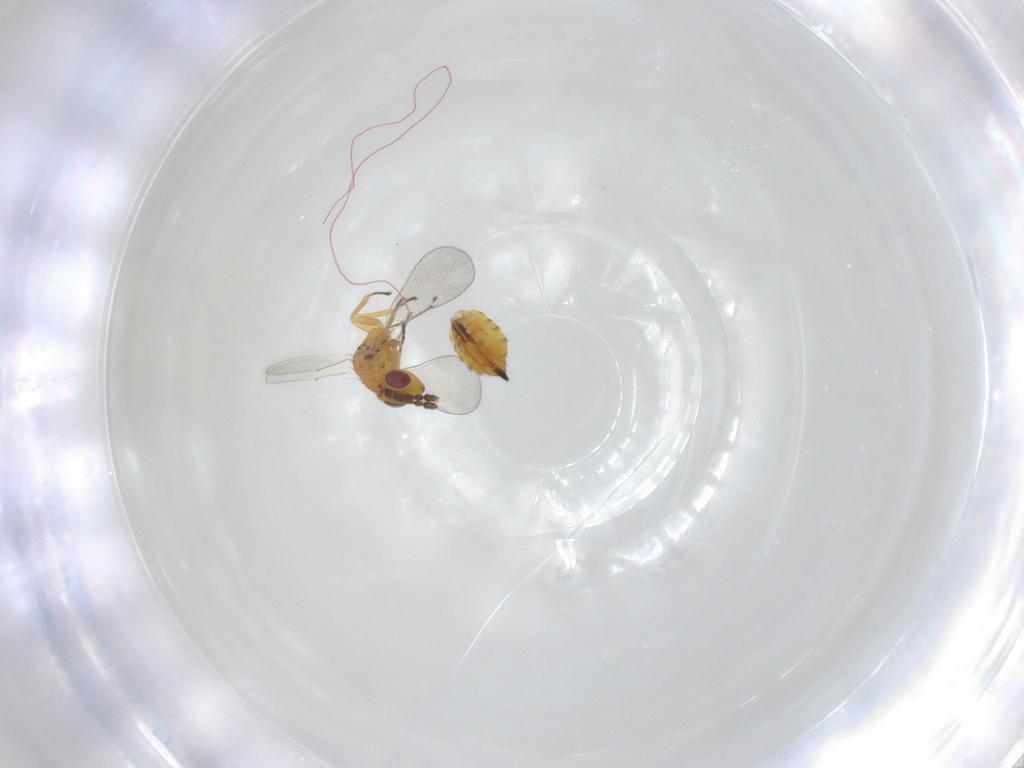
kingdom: Animalia
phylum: Arthropoda
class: Insecta
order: Hymenoptera
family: Eulophidae
